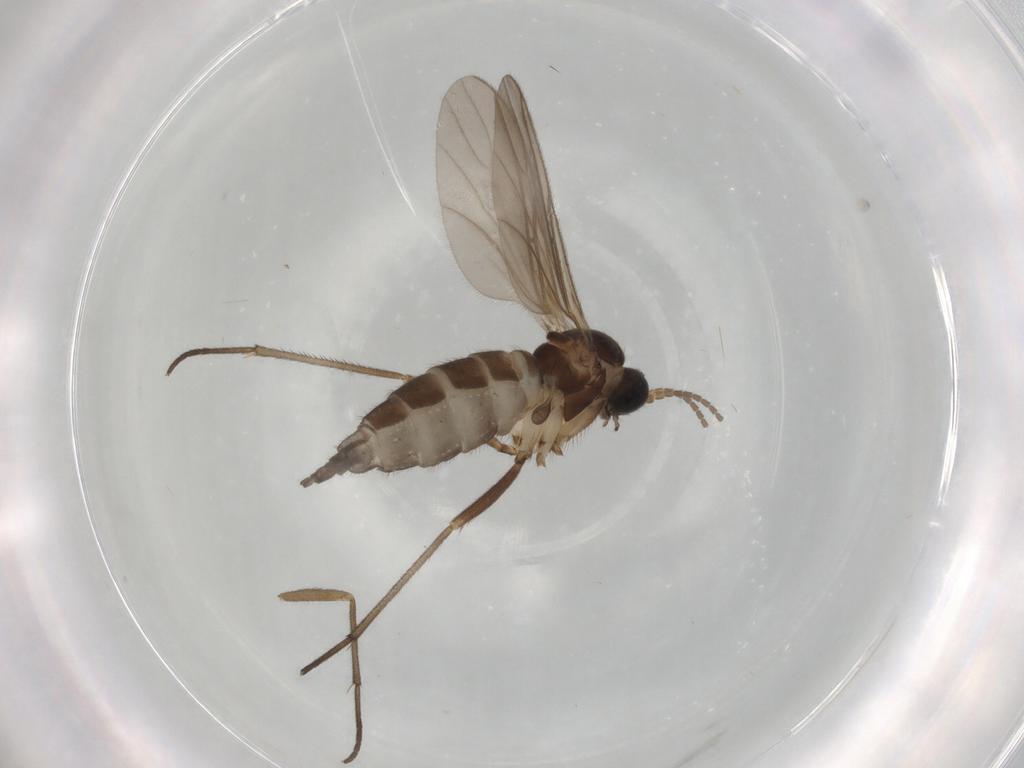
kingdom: Animalia
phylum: Arthropoda
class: Insecta
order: Diptera
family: Sciaridae
